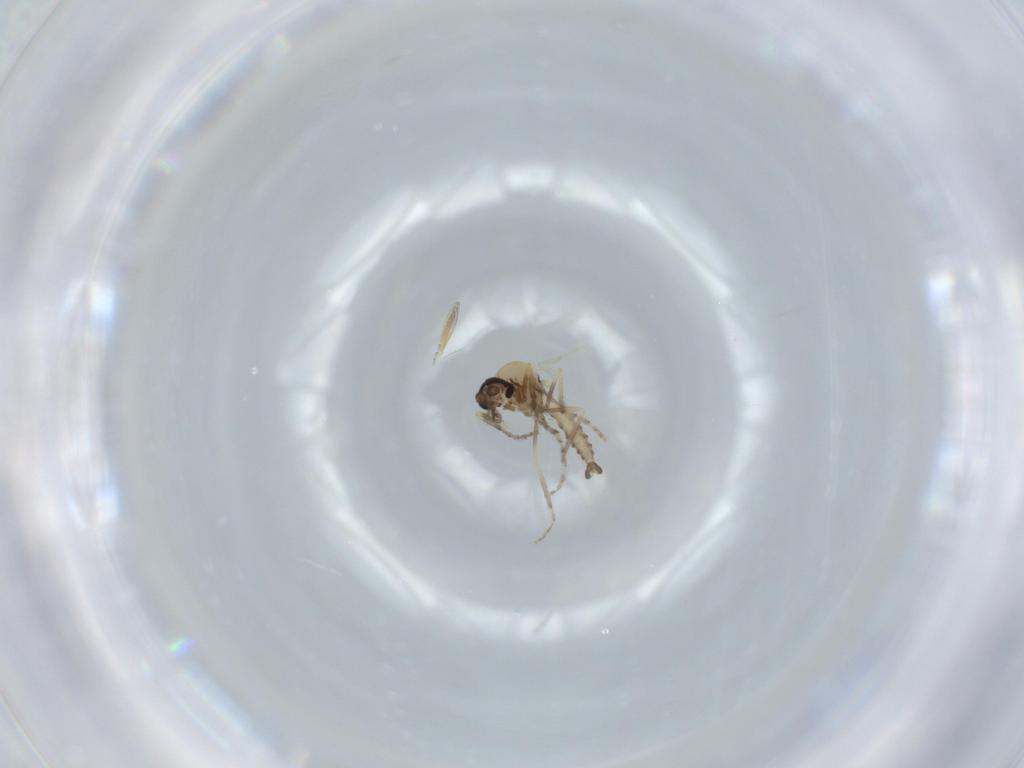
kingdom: Animalia
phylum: Arthropoda
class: Insecta
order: Diptera
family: Ceratopogonidae
